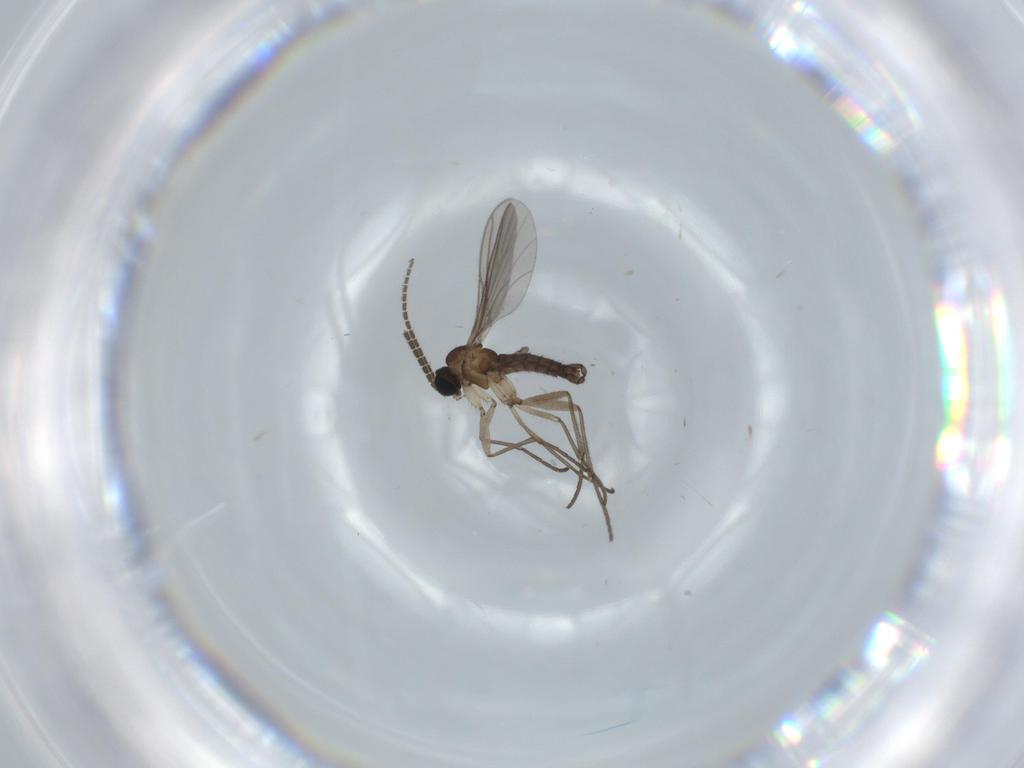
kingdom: Animalia
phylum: Arthropoda
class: Insecta
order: Diptera
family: Sciaridae
